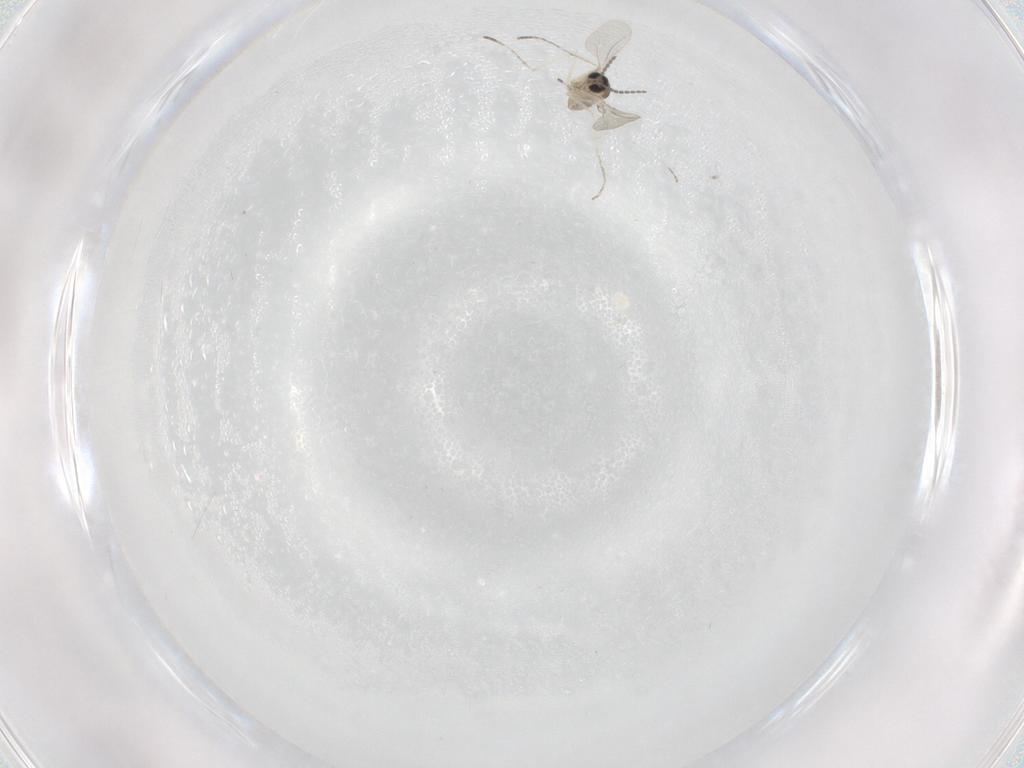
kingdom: Animalia
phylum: Arthropoda
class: Insecta
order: Diptera
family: Cecidomyiidae
